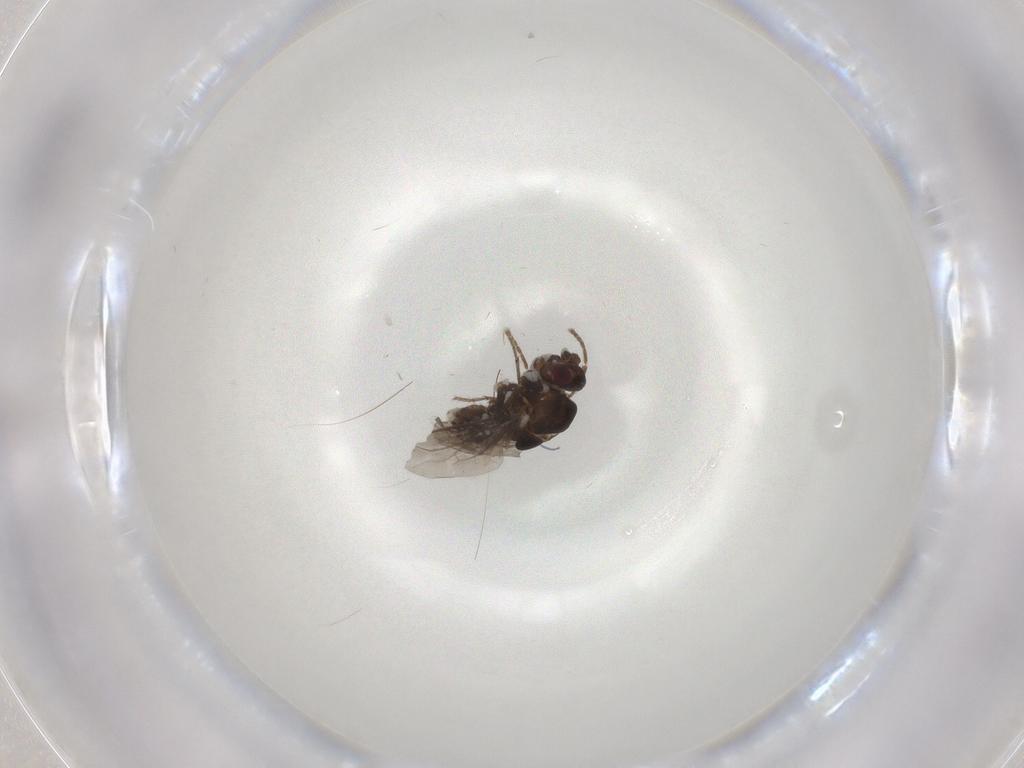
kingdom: Animalia
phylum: Arthropoda
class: Insecta
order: Diptera
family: Chironomidae
